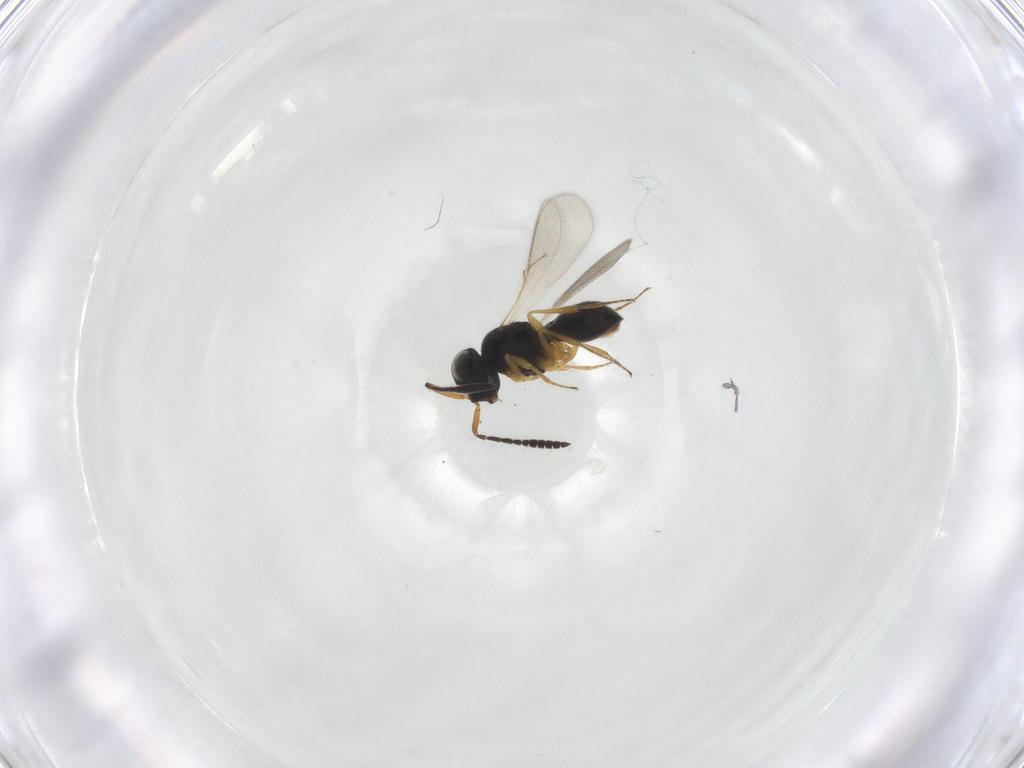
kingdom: Animalia
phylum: Arthropoda
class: Insecta
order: Hymenoptera
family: Scelionidae
